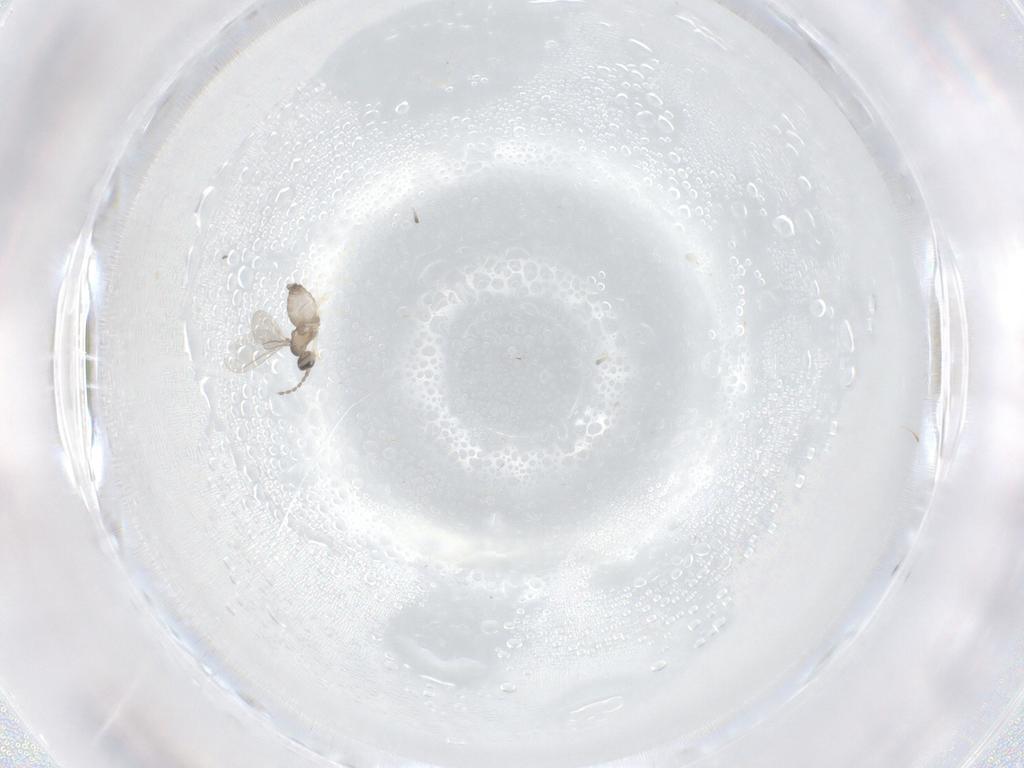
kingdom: Animalia
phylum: Arthropoda
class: Insecta
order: Diptera
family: Cecidomyiidae
